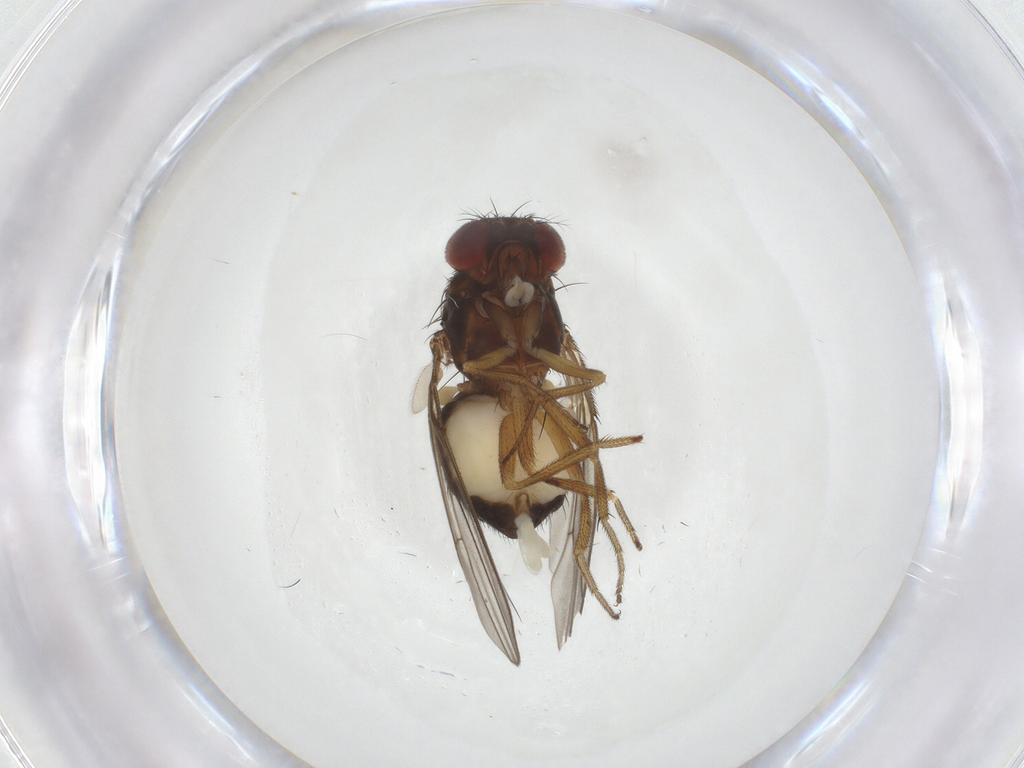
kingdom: Animalia
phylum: Arthropoda
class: Insecta
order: Diptera
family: Drosophilidae
